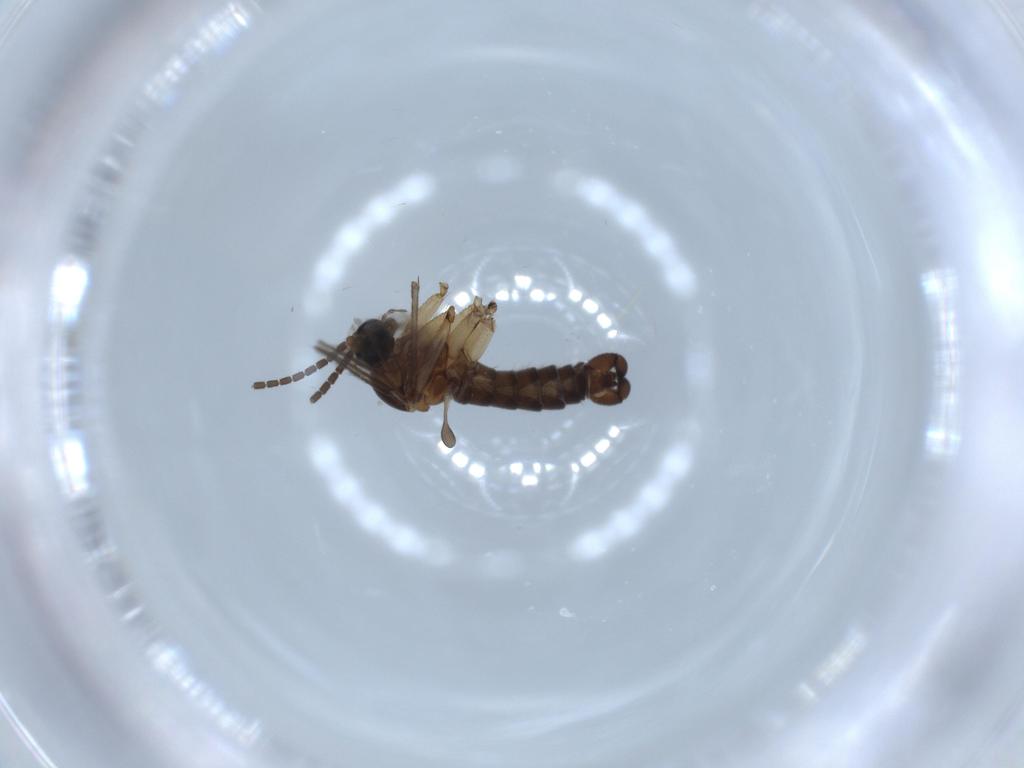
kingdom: Animalia
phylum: Arthropoda
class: Insecta
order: Diptera
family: Sciaridae
